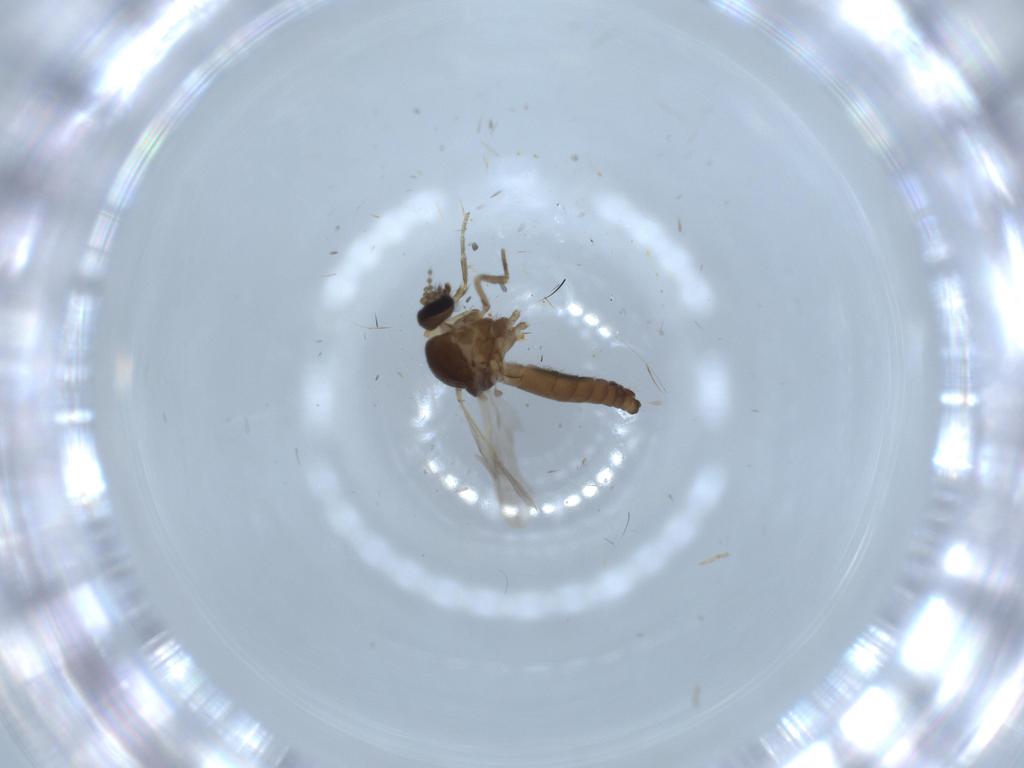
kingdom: Animalia
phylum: Arthropoda
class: Insecta
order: Diptera
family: Ceratopogonidae
